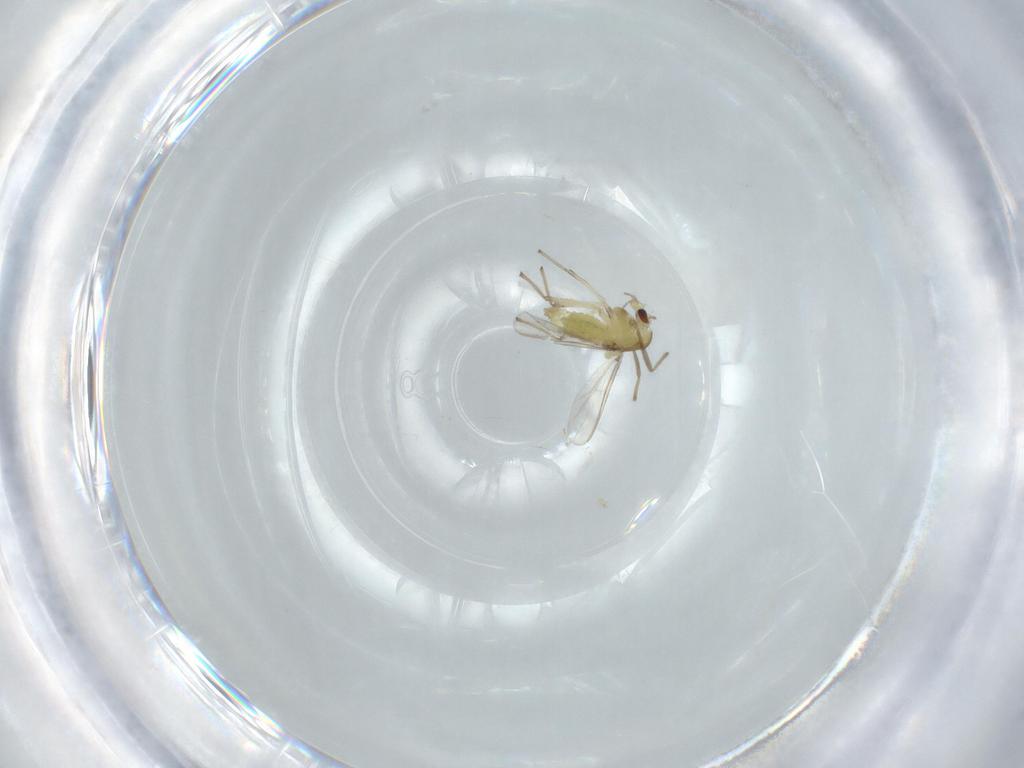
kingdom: Animalia
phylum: Arthropoda
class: Insecta
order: Diptera
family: Chironomidae
